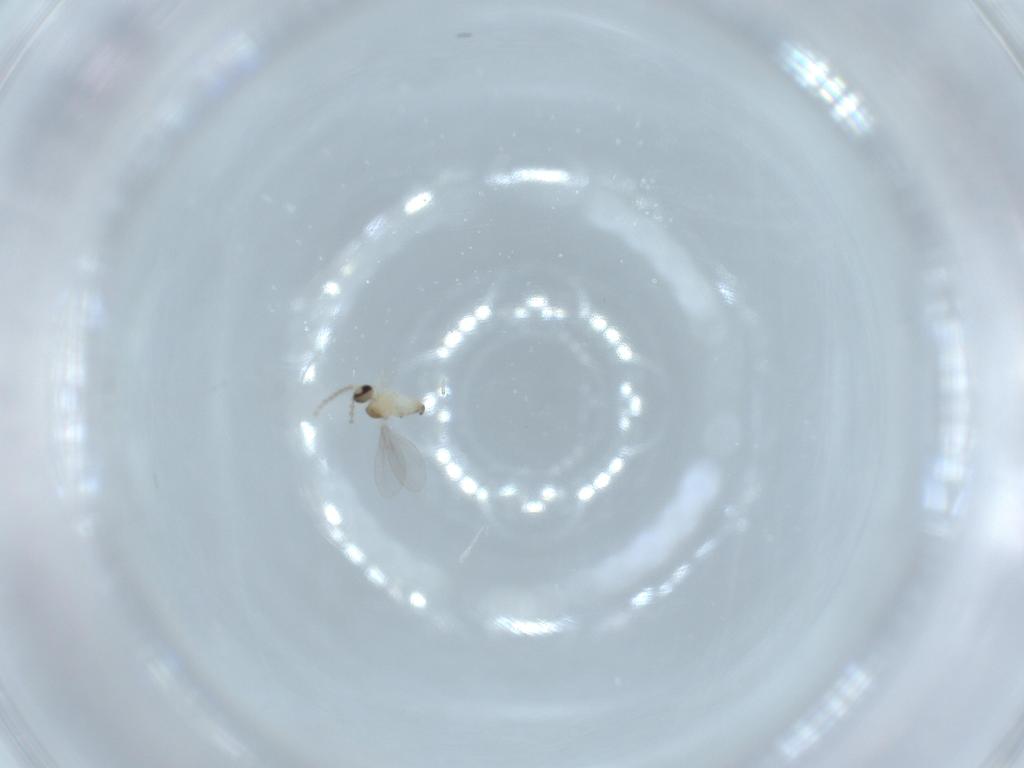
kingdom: Animalia
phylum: Arthropoda
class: Insecta
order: Diptera
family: Cecidomyiidae
